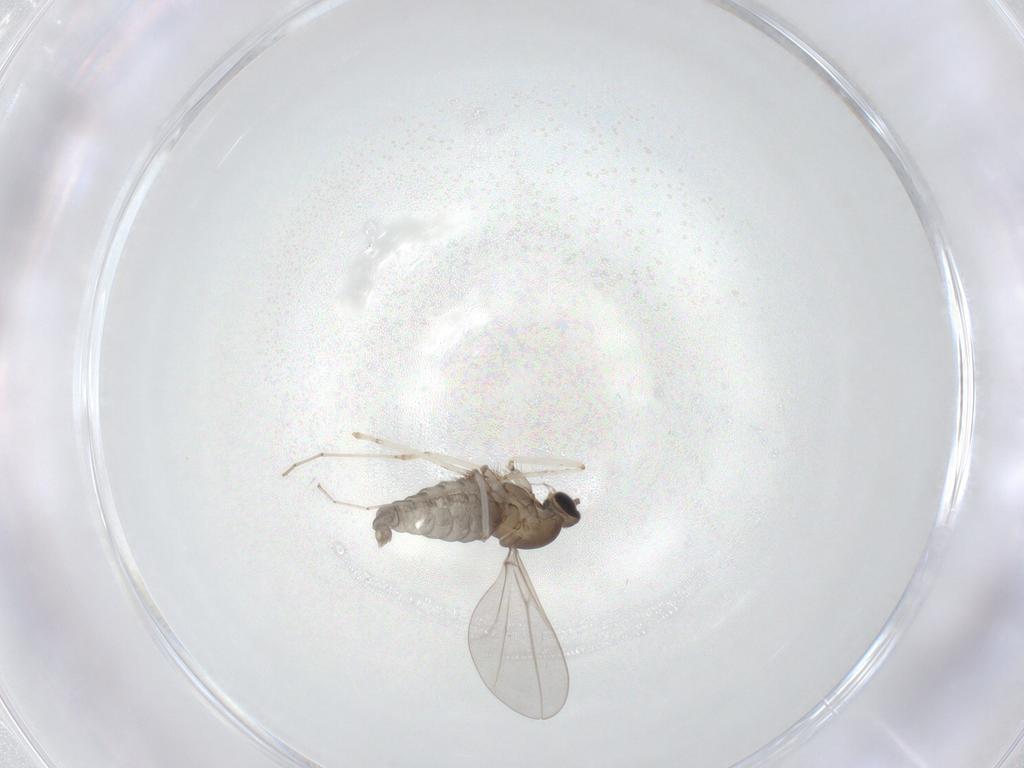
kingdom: Animalia
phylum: Arthropoda
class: Insecta
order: Diptera
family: Cecidomyiidae
